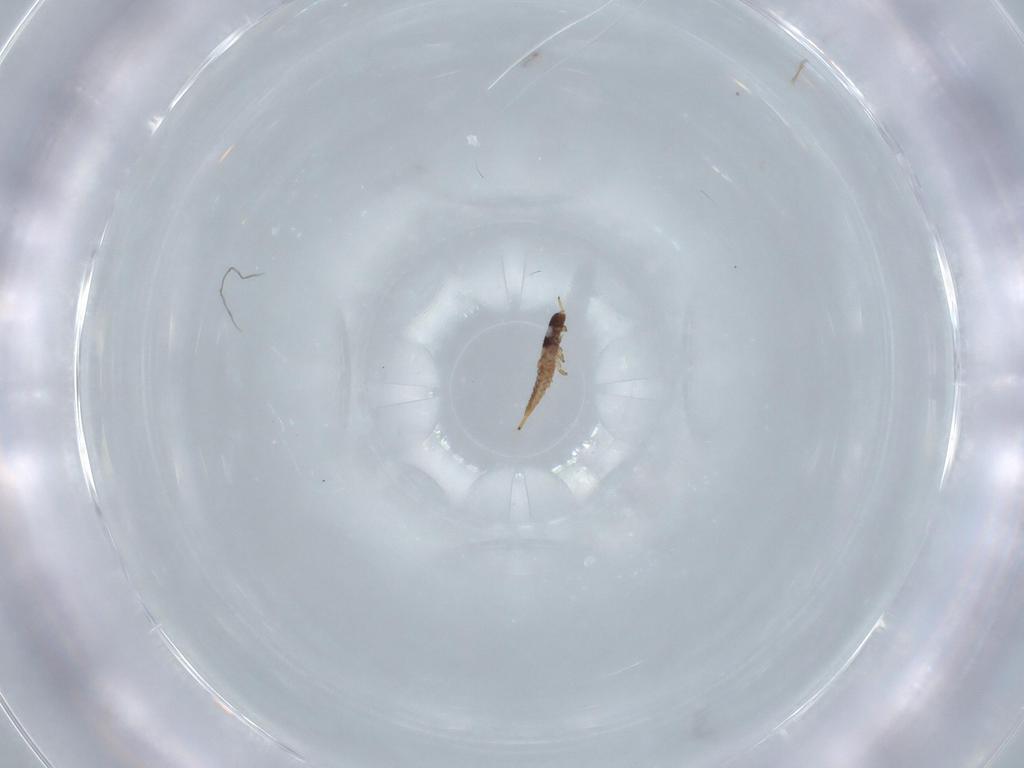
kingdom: Animalia
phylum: Arthropoda
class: Insecta
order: Thysanoptera
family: Phlaeothripidae
